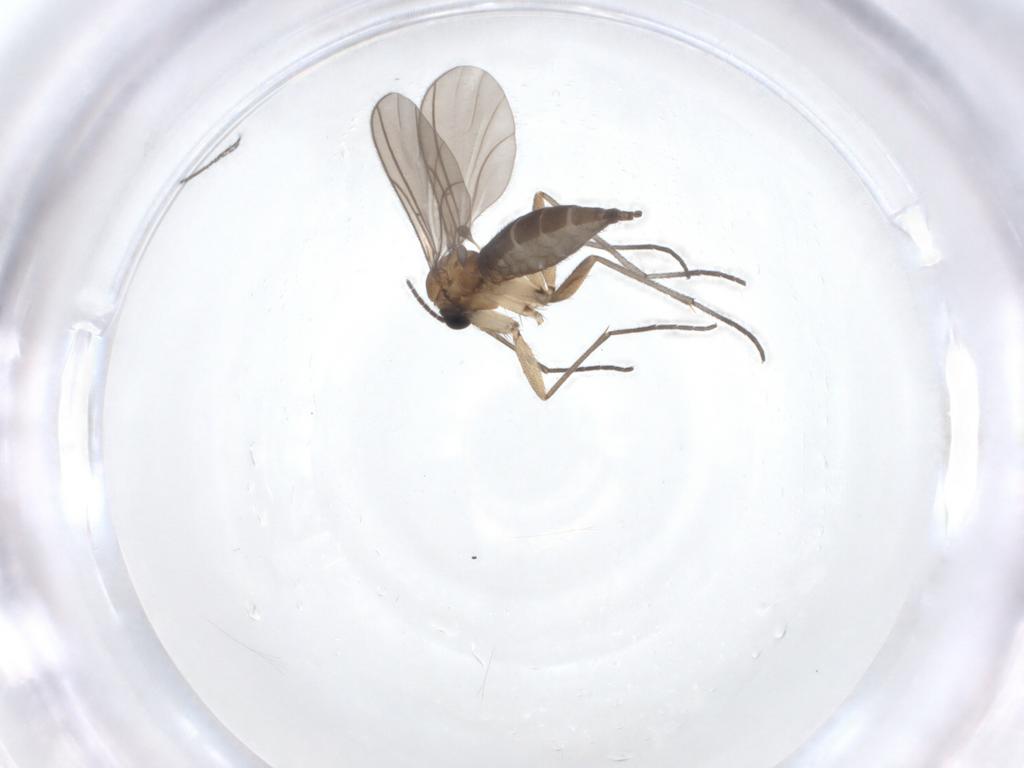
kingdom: Animalia
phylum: Arthropoda
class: Insecta
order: Diptera
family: Sciaridae
